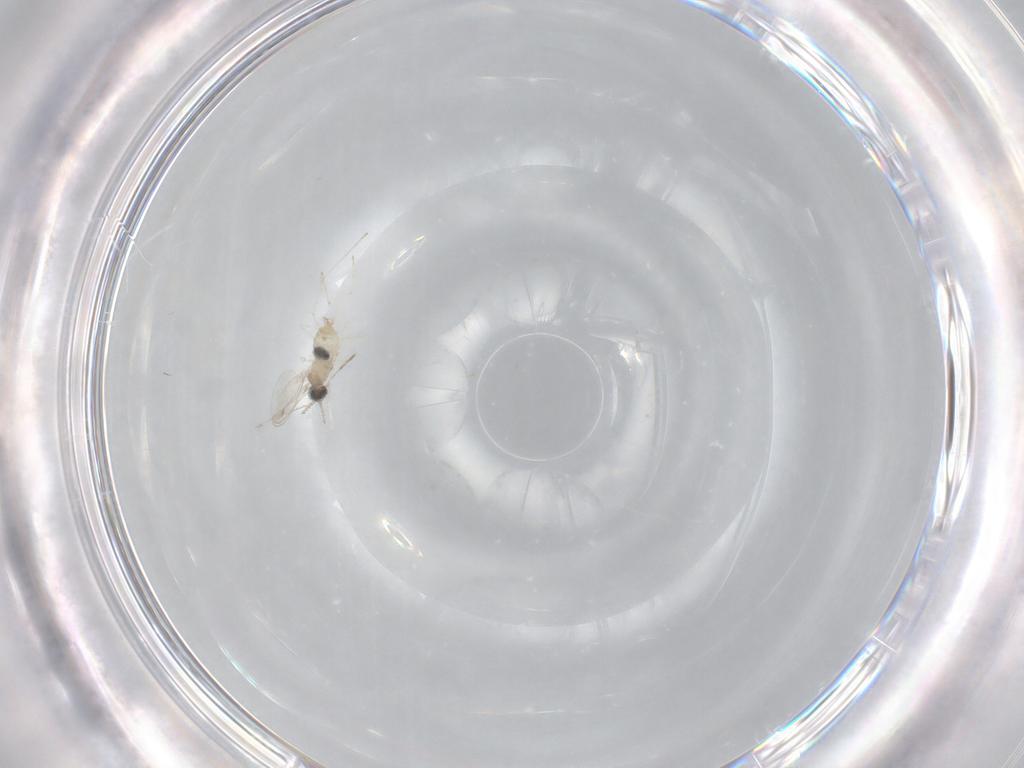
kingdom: Animalia
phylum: Arthropoda
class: Insecta
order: Diptera
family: Cecidomyiidae
